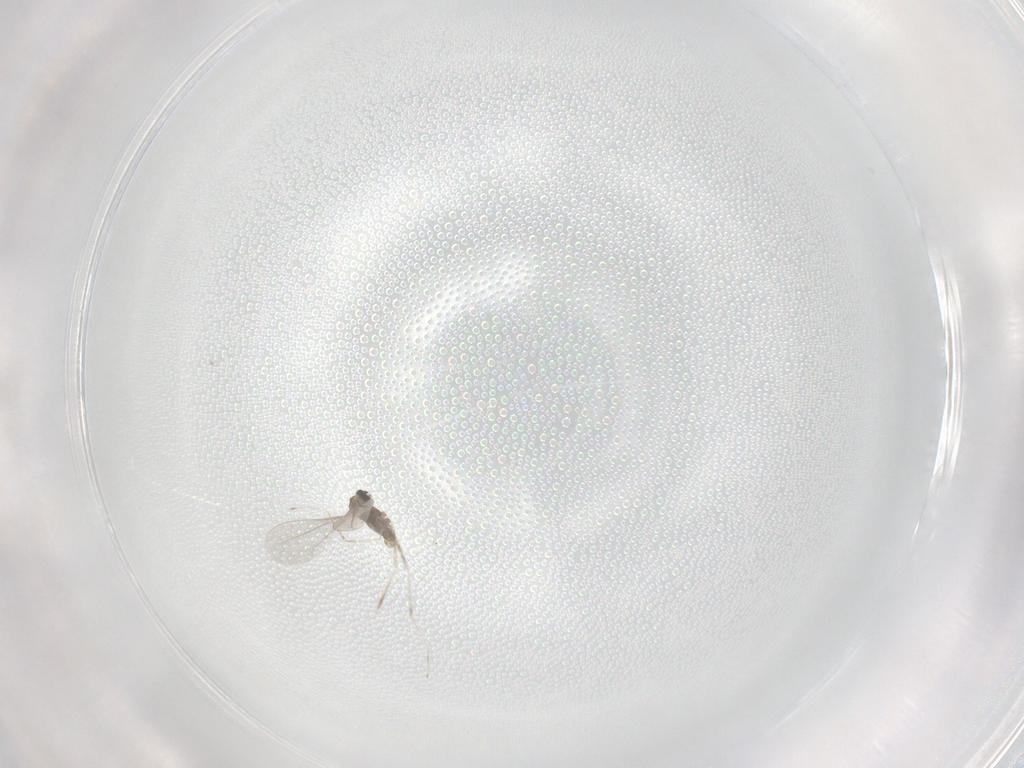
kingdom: Animalia
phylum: Arthropoda
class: Insecta
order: Diptera
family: Cecidomyiidae
